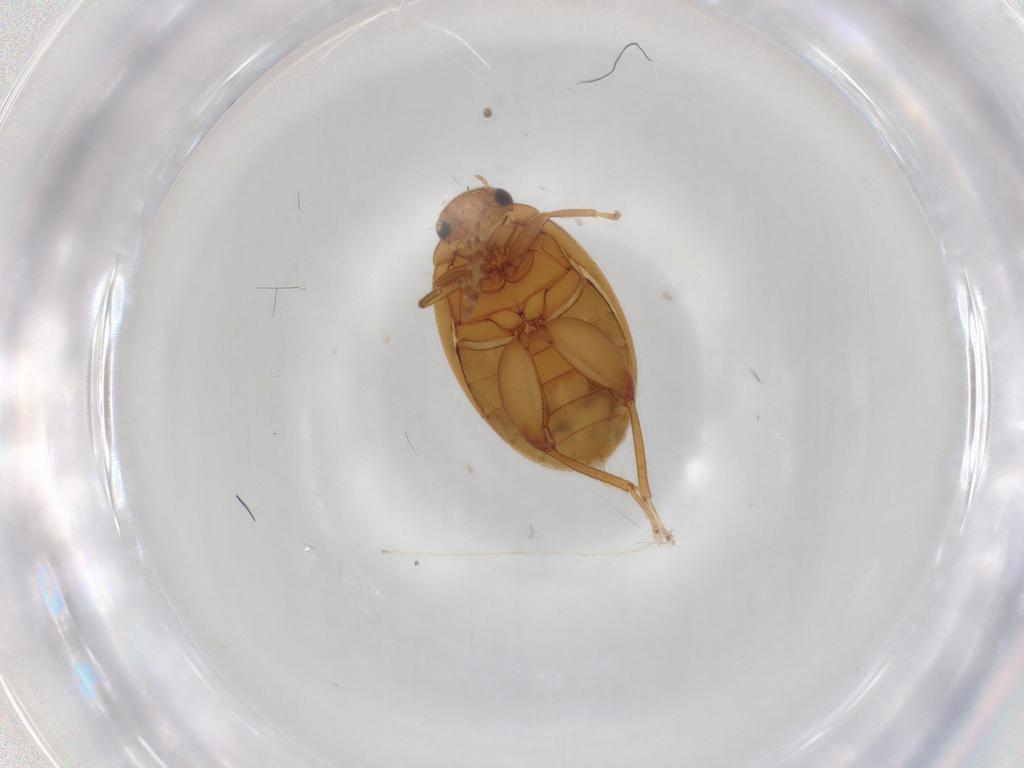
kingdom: Animalia
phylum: Arthropoda
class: Insecta
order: Coleoptera
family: Scirtidae
